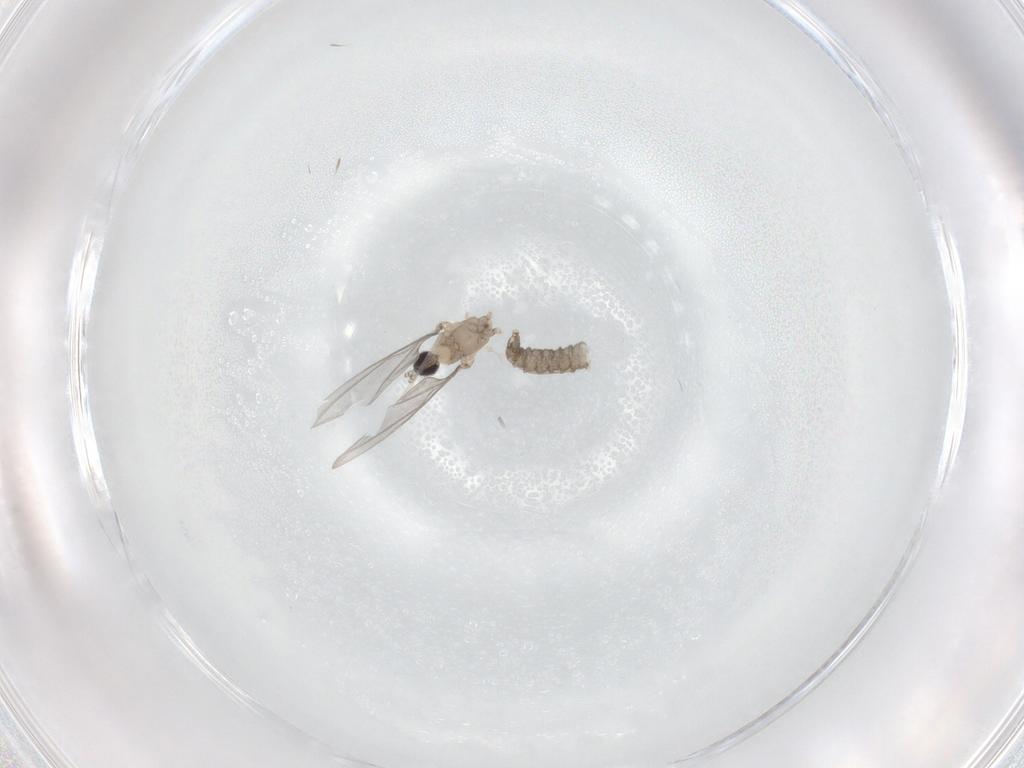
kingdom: Animalia
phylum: Arthropoda
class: Insecta
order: Diptera
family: Cecidomyiidae
